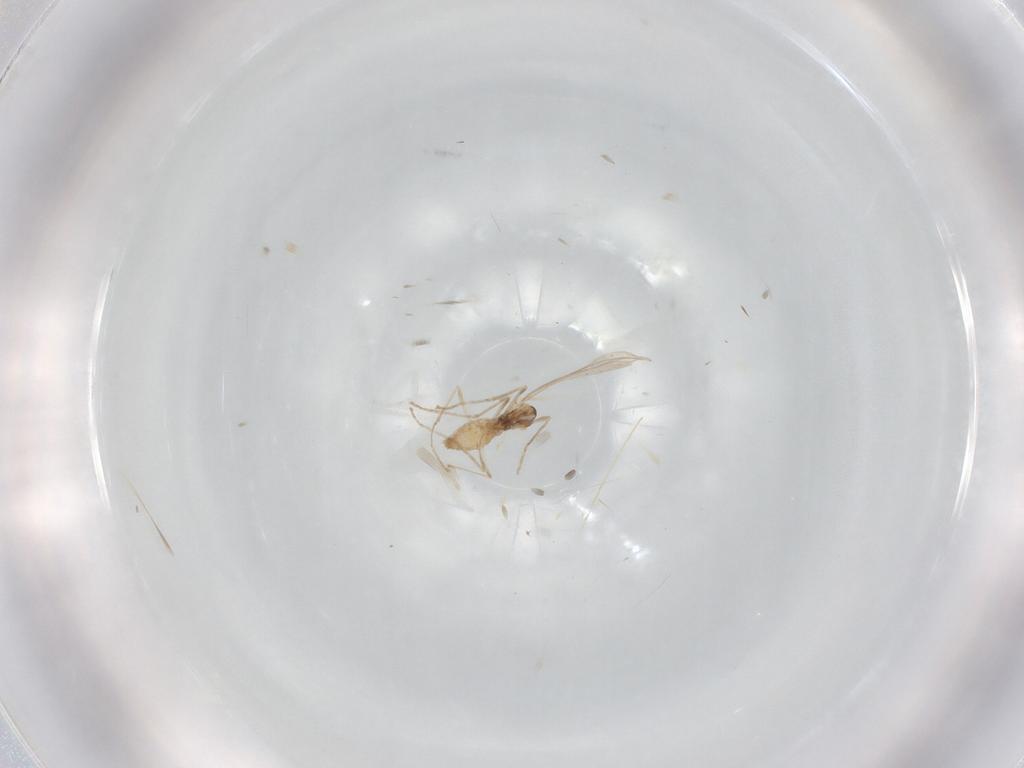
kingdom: Animalia
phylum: Arthropoda
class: Insecta
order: Diptera
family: Cecidomyiidae
